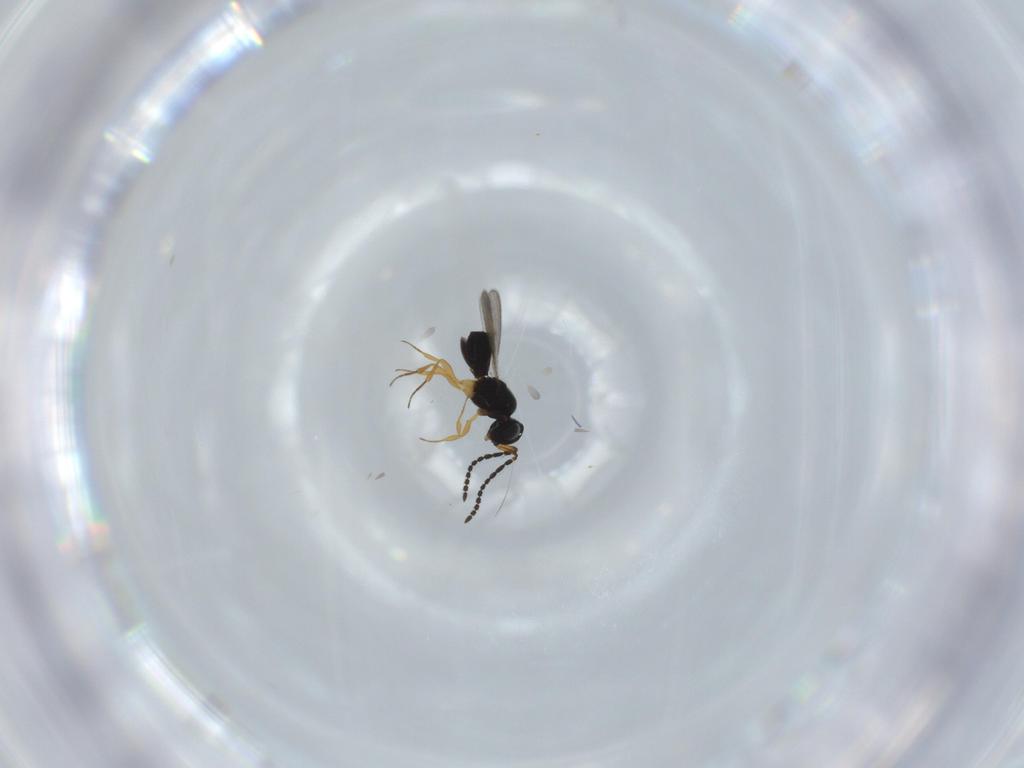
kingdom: Animalia
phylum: Arthropoda
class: Insecta
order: Hymenoptera
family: Scelionidae
